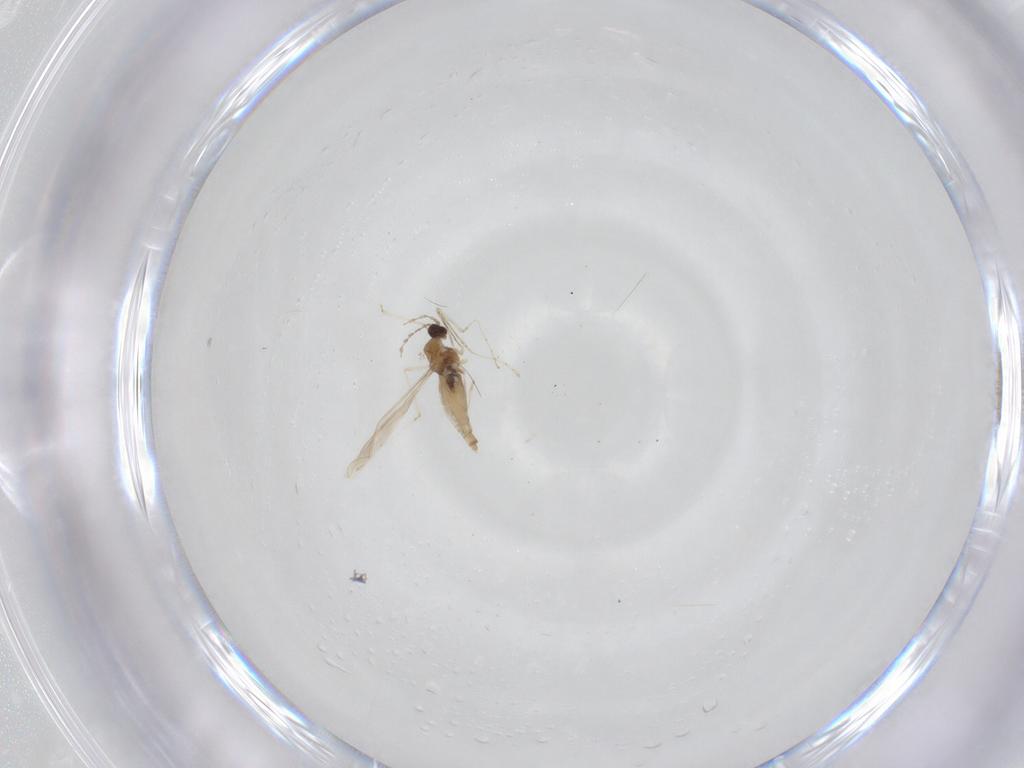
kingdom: Animalia
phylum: Arthropoda
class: Insecta
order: Diptera
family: Cecidomyiidae
